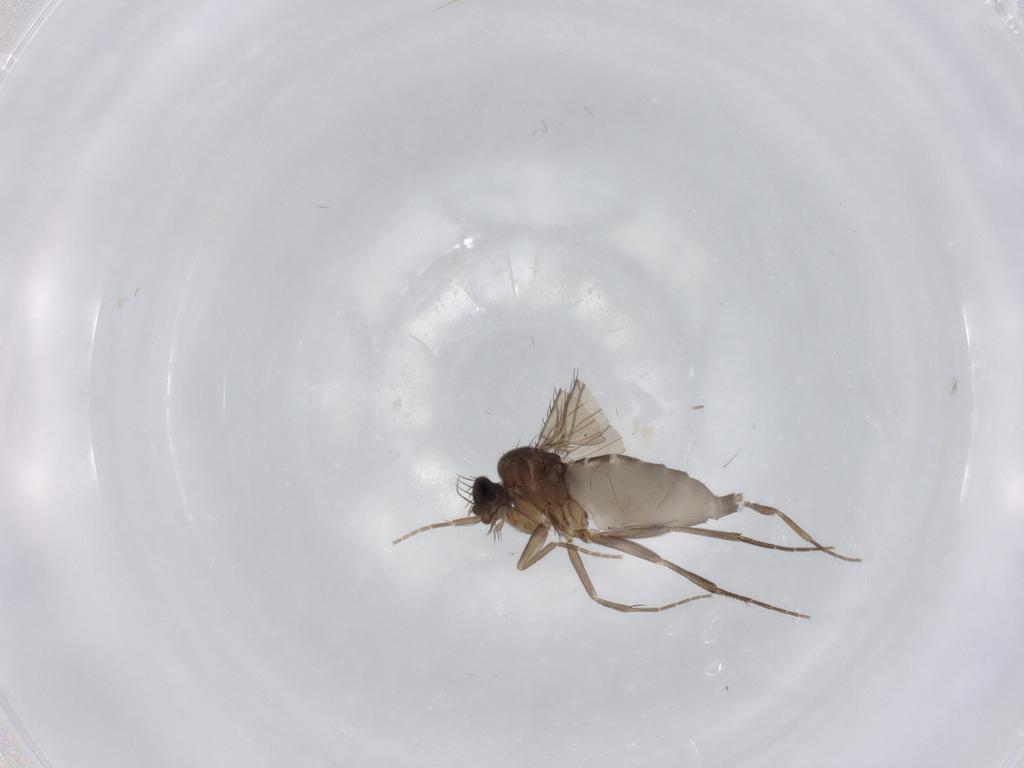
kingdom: Animalia
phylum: Arthropoda
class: Insecta
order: Diptera
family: Phoridae
